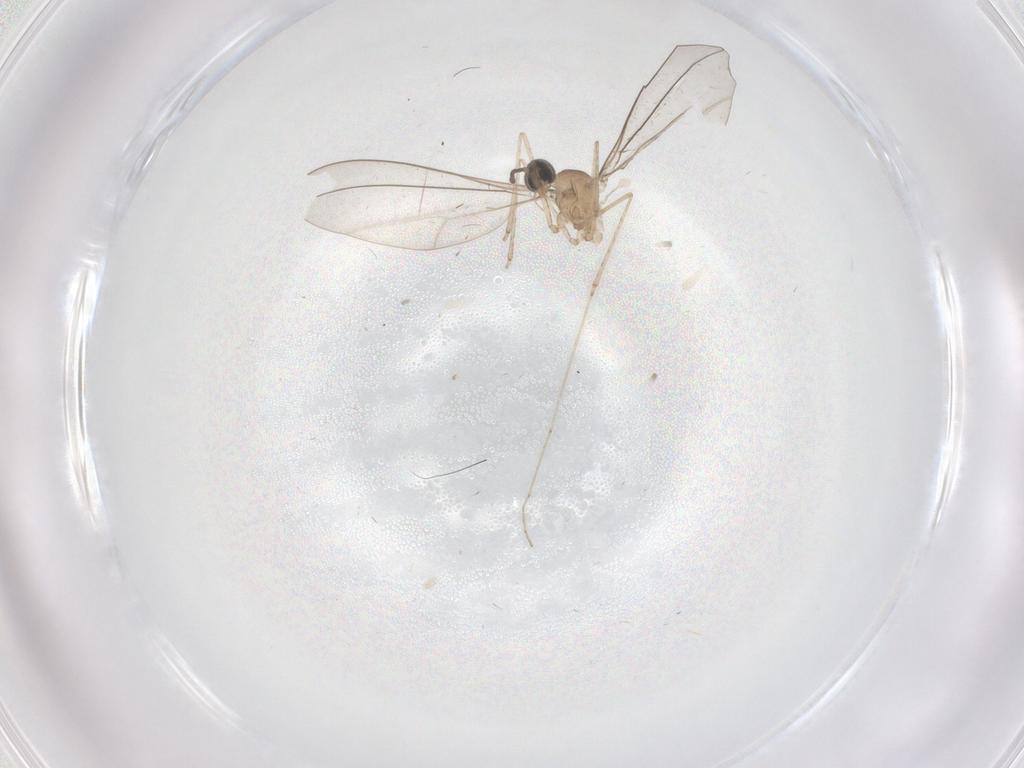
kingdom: Animalia
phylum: Arthropoda
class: Insecta
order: Diptera
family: Cecidomyiidae
